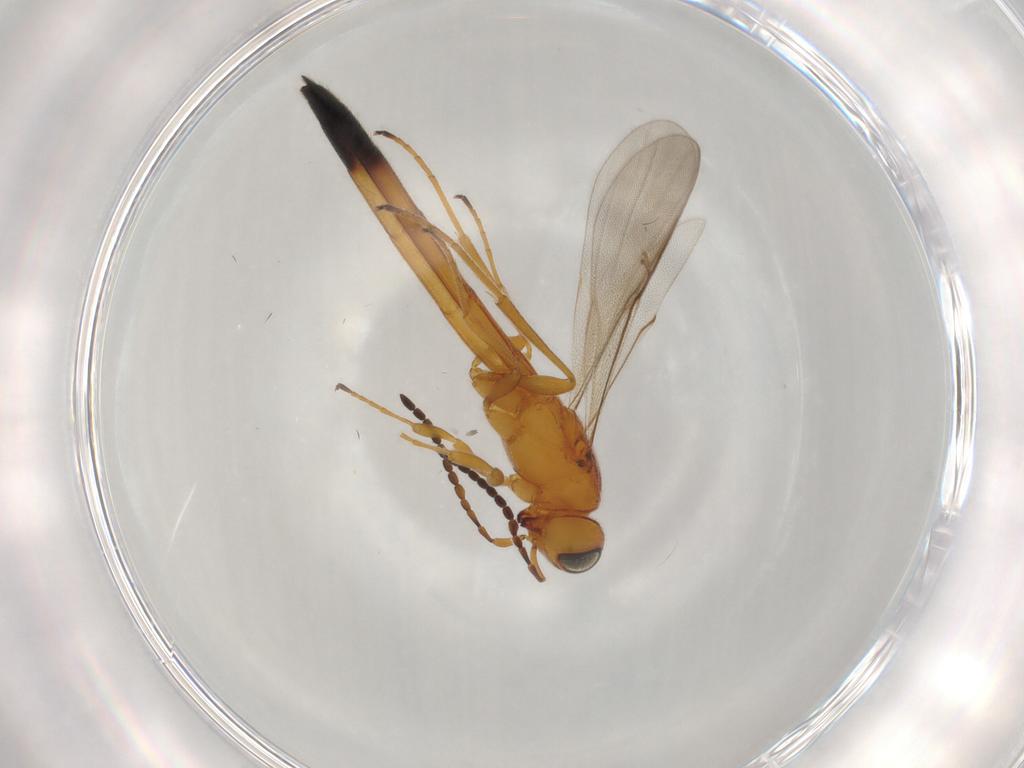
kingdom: Animalia
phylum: Arthropoda
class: Insecta
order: Hymenoptera
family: Scelionidae
